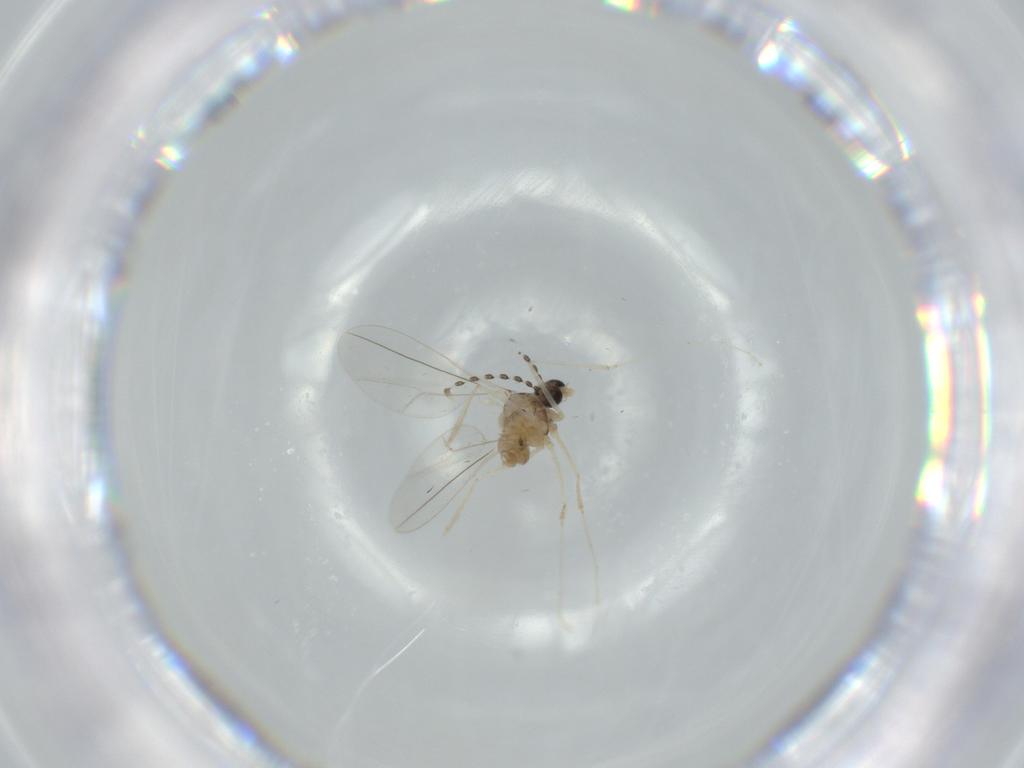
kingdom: Animalia
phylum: Arthropoda
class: Insecta
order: Diptera
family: Cecidomyiidae
